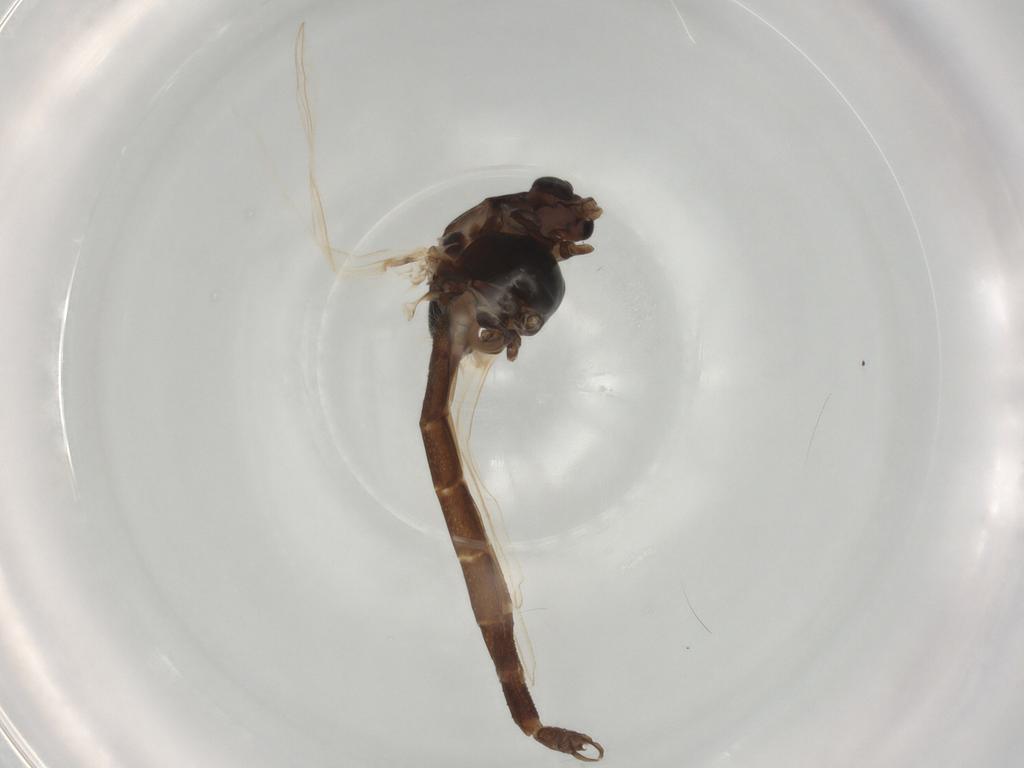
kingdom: Animalia
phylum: Arthropoda
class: Insecta
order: Diptera
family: Chironomidae
